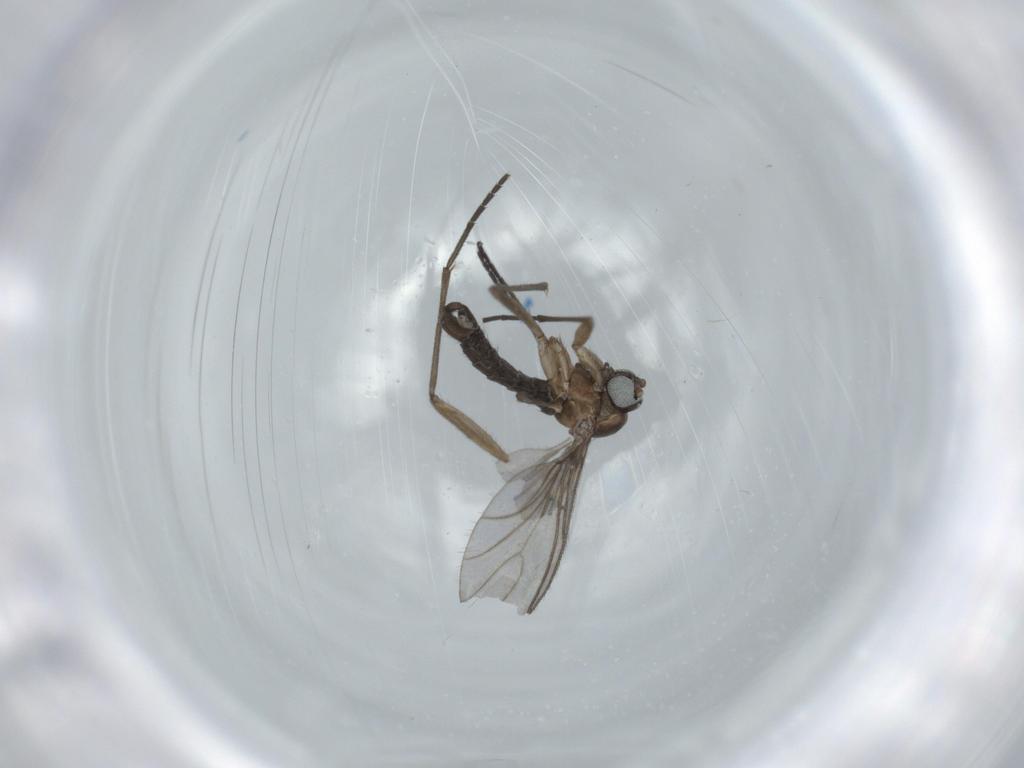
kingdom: Animalia
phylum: Arthropoda
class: Insecta
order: Diptera
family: Sciaridae
